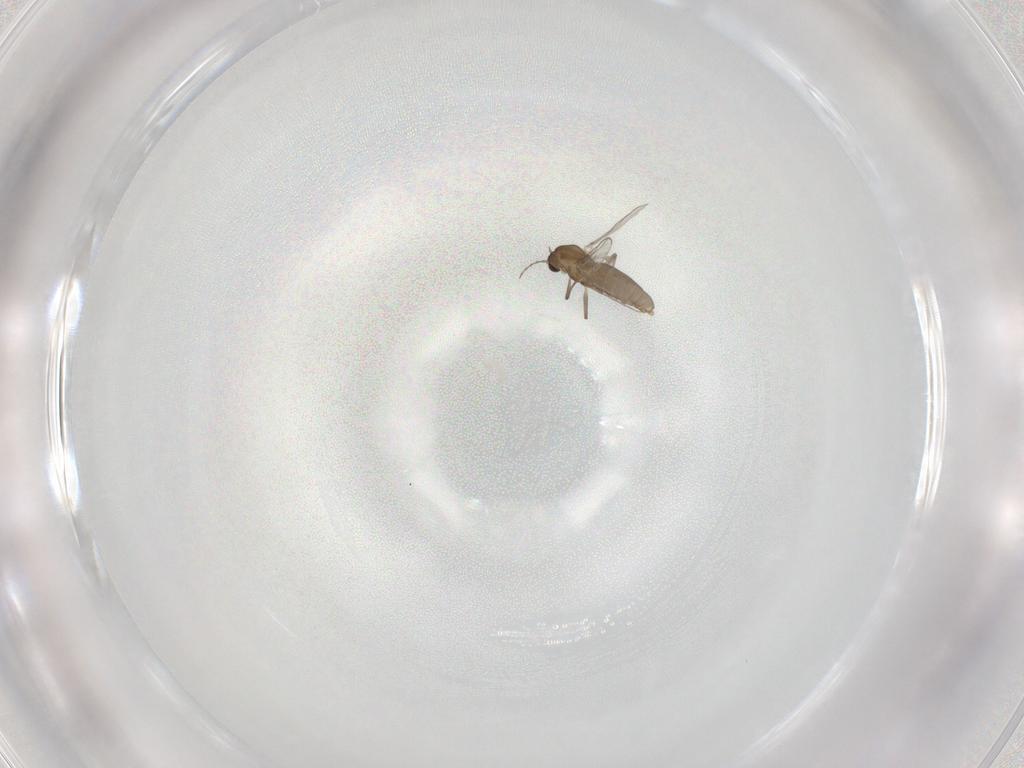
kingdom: Animalia
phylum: Arthropoda
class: Insecta
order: Diptera
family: Chironomidae
